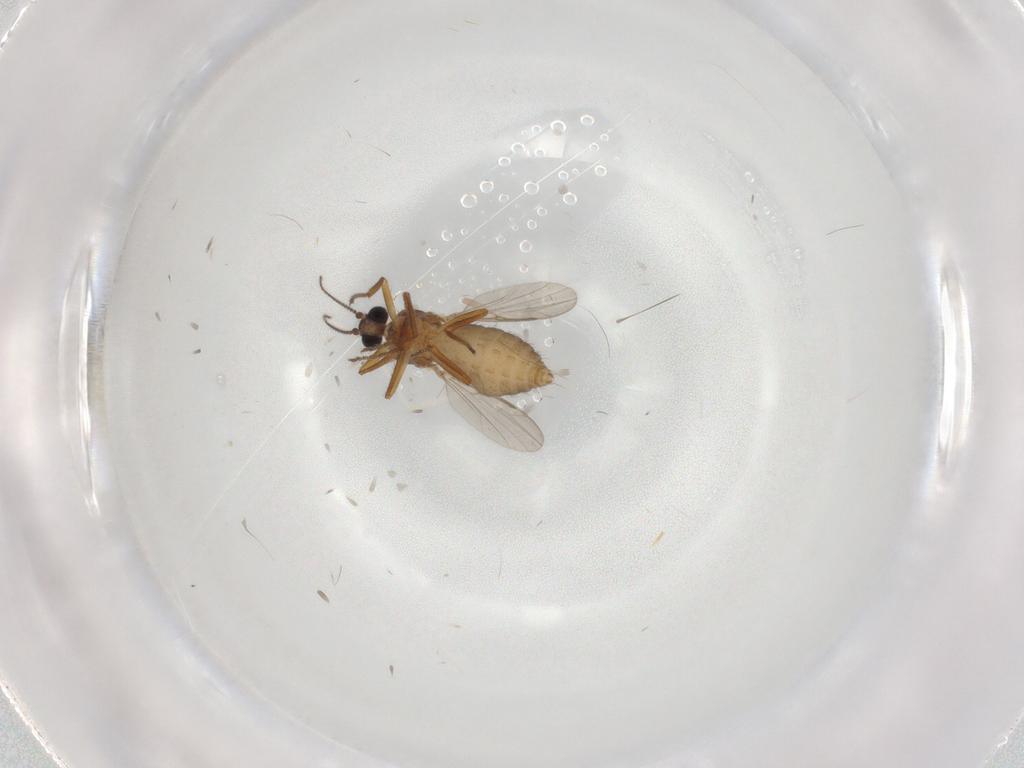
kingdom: Animalia
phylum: Arthropoda
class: Insecta
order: Diptera
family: Ceratopogonidae
